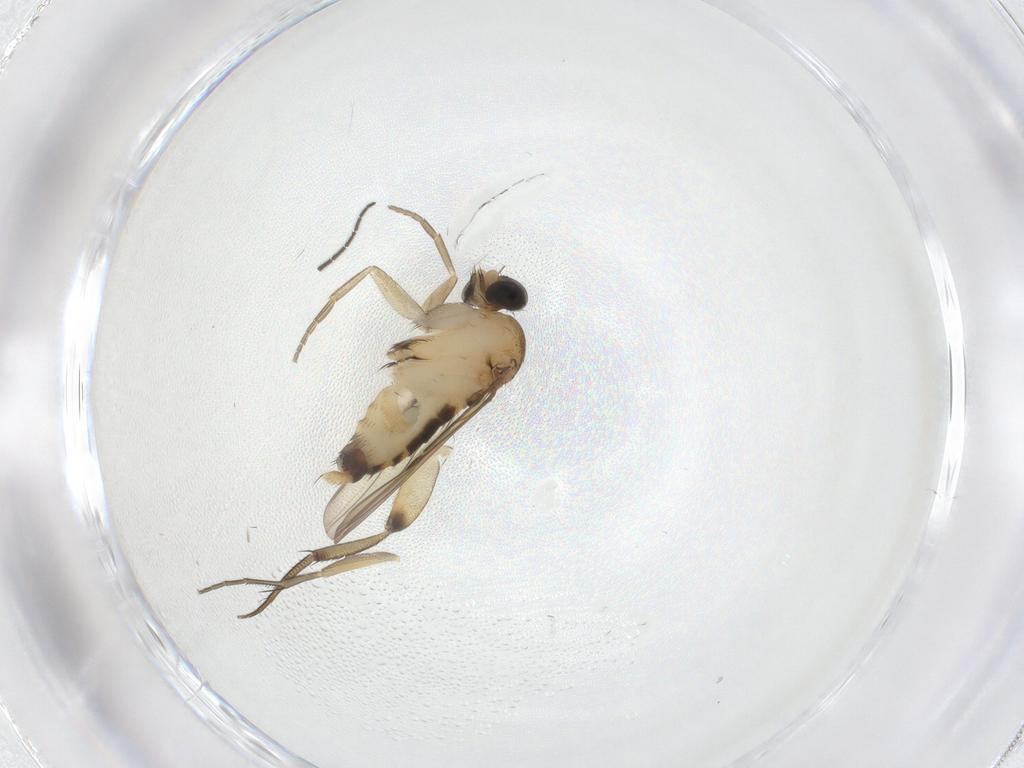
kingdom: Animalia
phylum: Arthropoda
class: Insecta
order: Diptera
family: Phoridae
